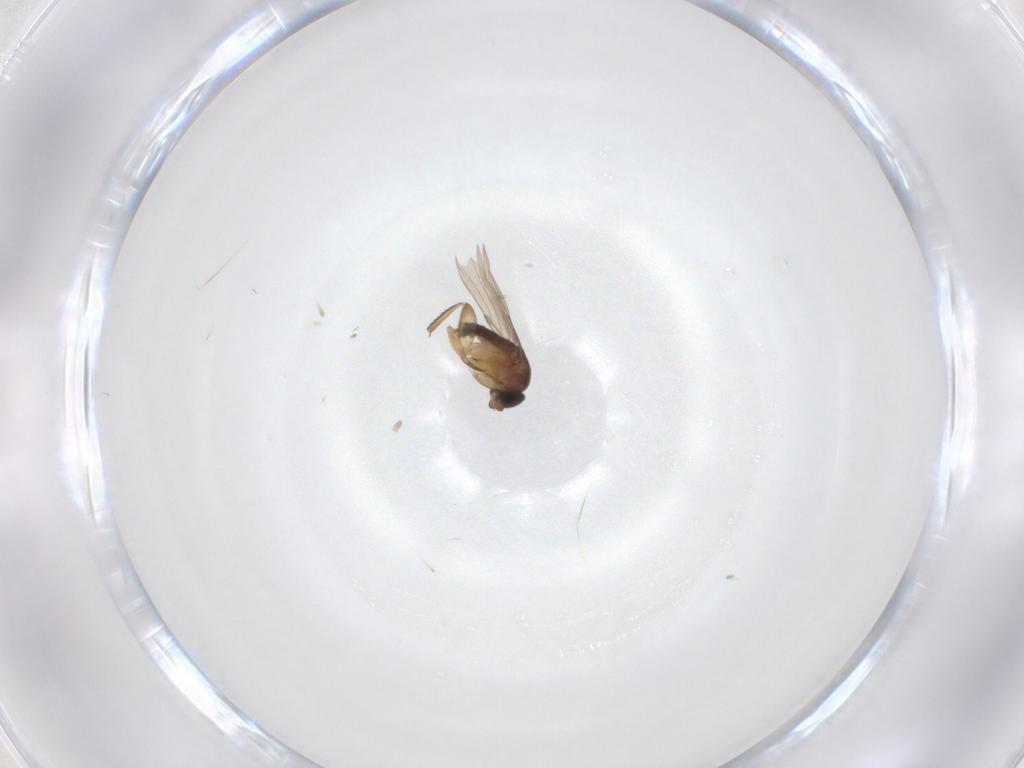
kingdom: Animalia
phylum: Arthropoda
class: Insecta
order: Diptera
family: Phoridae
